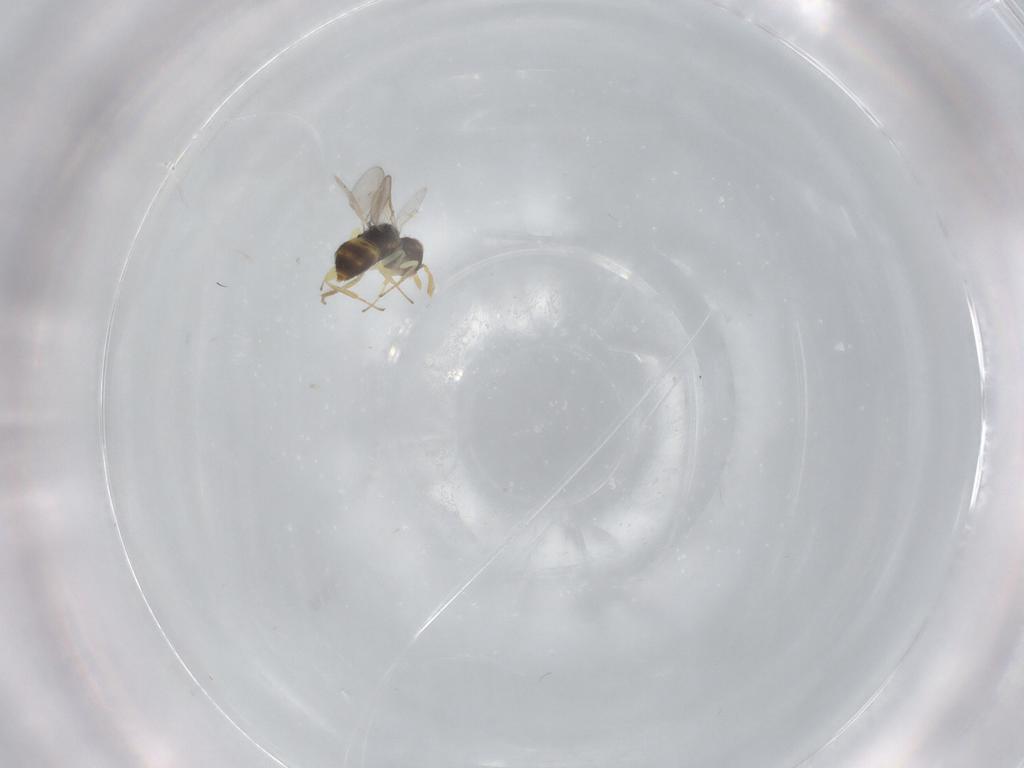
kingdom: Animalia
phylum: Arthropoda
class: Insecta
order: Hymenoptera
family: Aphelinidae
